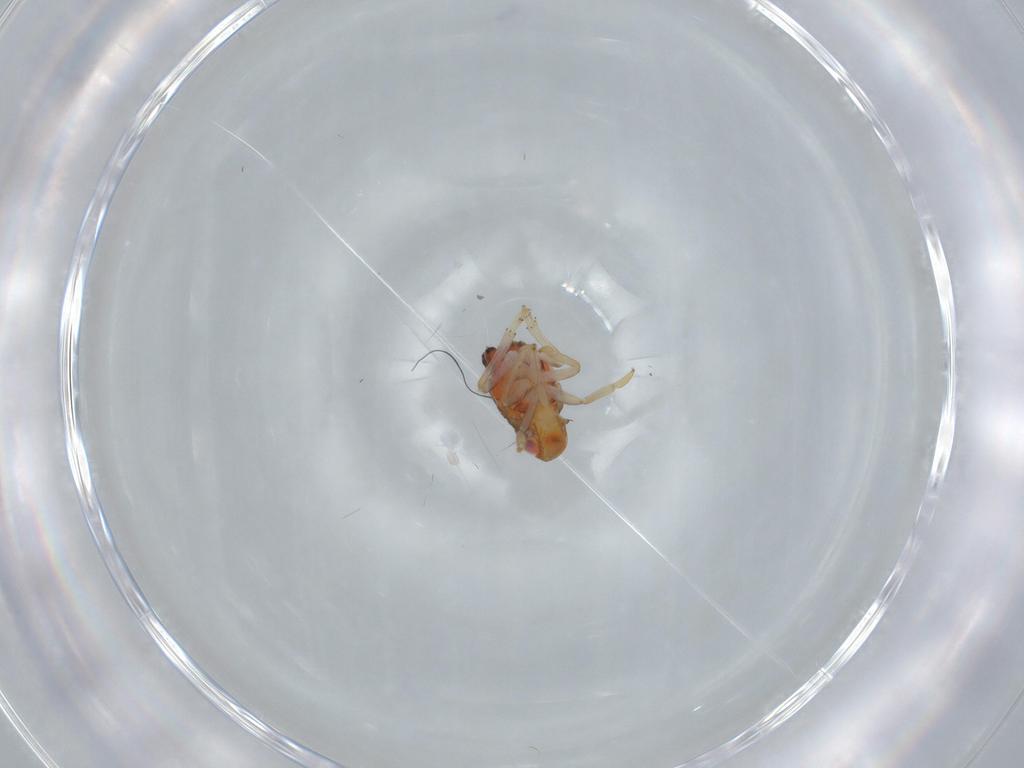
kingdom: Animalia
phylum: Arthropoda
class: Insecta
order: Hemiptera
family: Issidae
